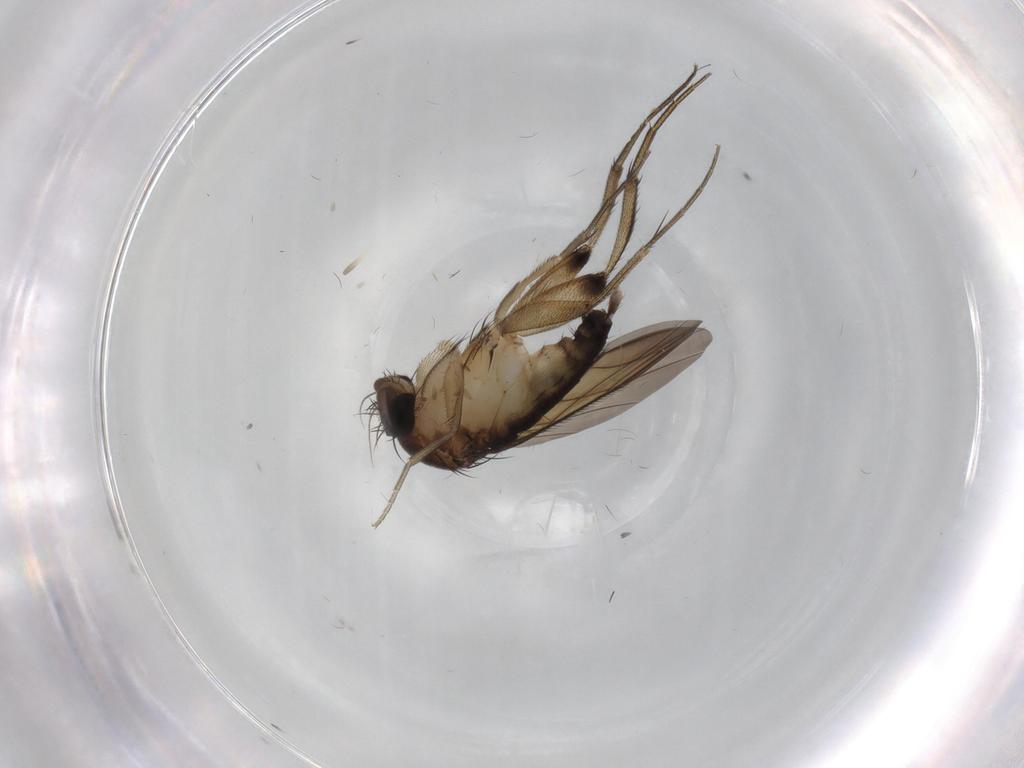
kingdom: Animalia
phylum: Arthropoda
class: Insecta
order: Diptera
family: Phoridae
